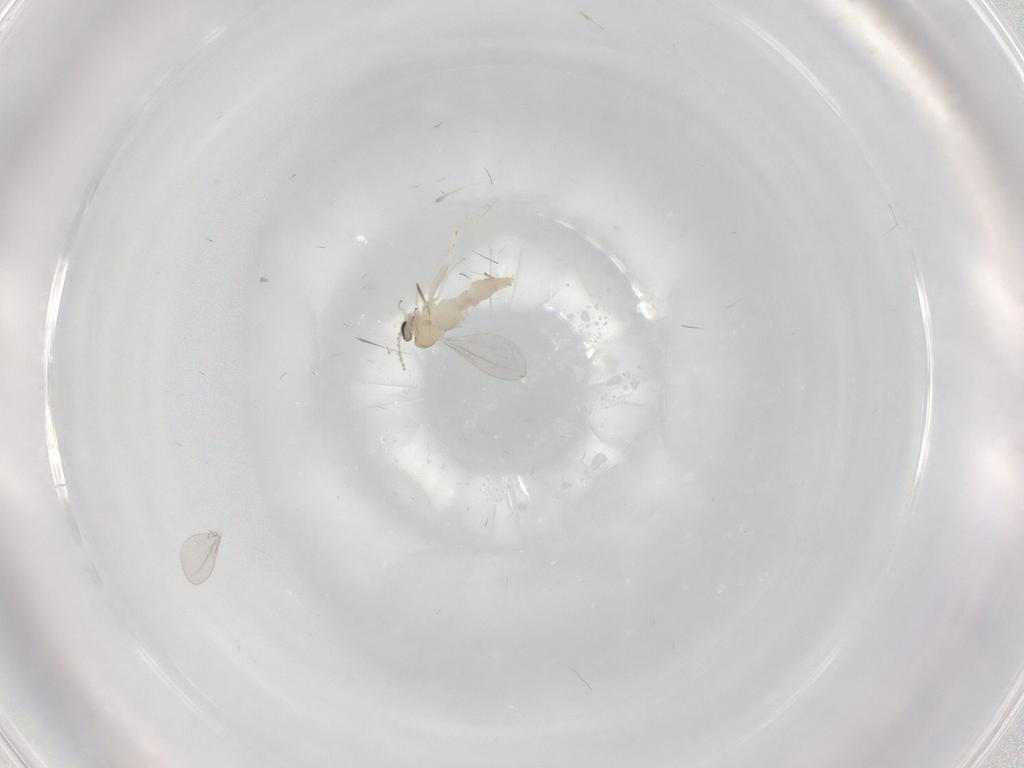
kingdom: Animalia
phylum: Arthropoda
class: Insecta
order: Diptera
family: Cecidomyiidae
